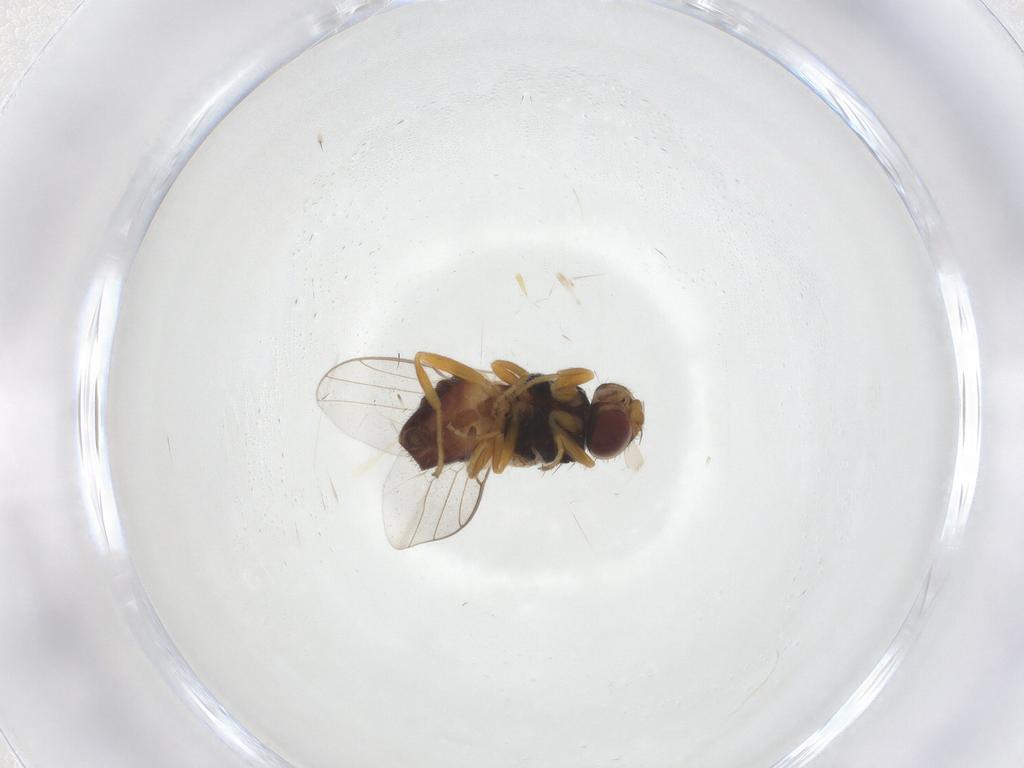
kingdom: Animalia
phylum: Arthropoda
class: Insecta
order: Diptera
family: Chloropidae
